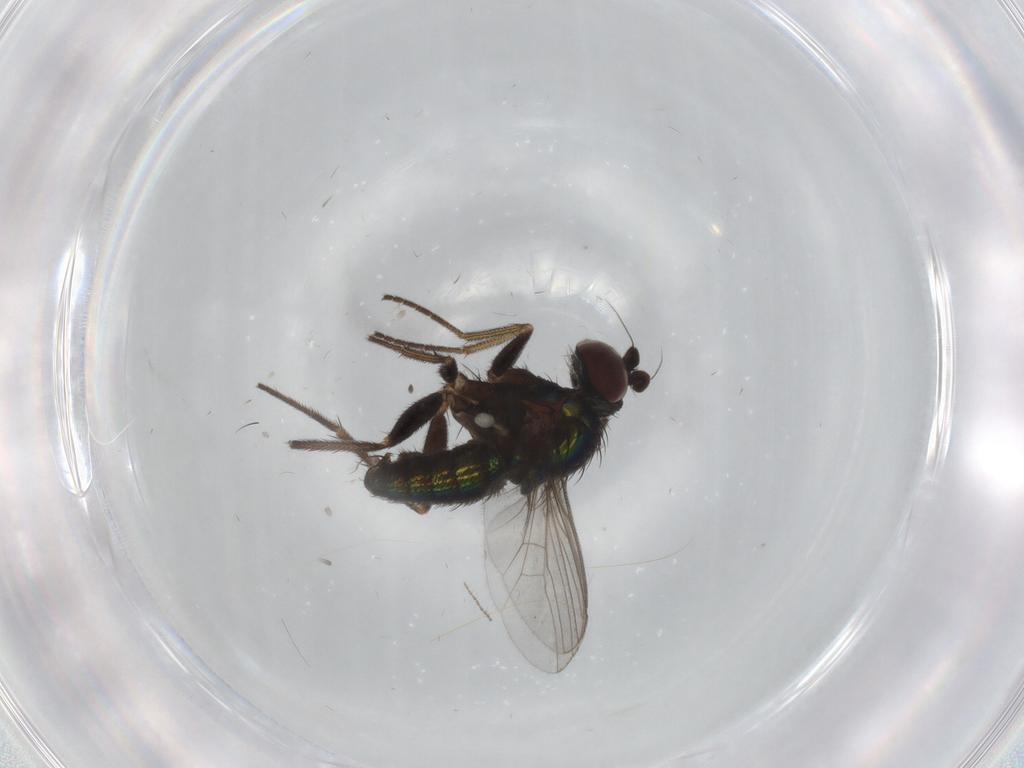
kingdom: Animalia
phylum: Arthropoda
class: Insecta
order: Diptera
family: Dolichopodidae
